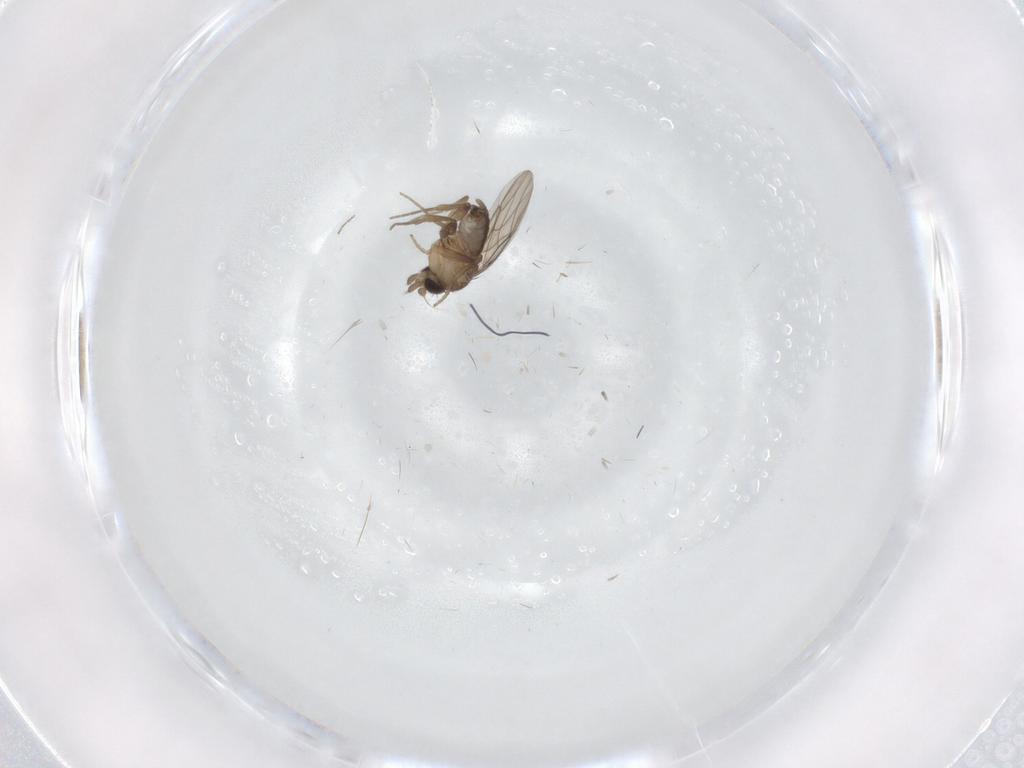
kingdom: Animalia
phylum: Arthropoda
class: Insecta
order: Diptera
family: Phoridae
